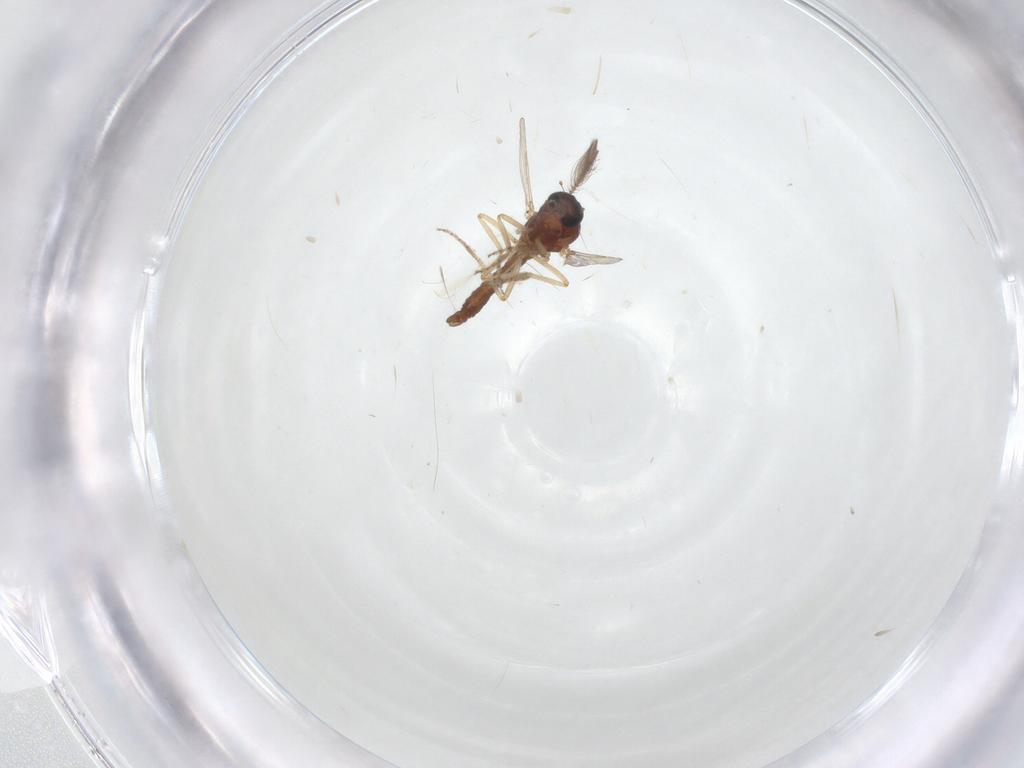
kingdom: Animalia
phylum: Arthropoda
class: Insecta
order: Diptera
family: Ceratopogonidae
